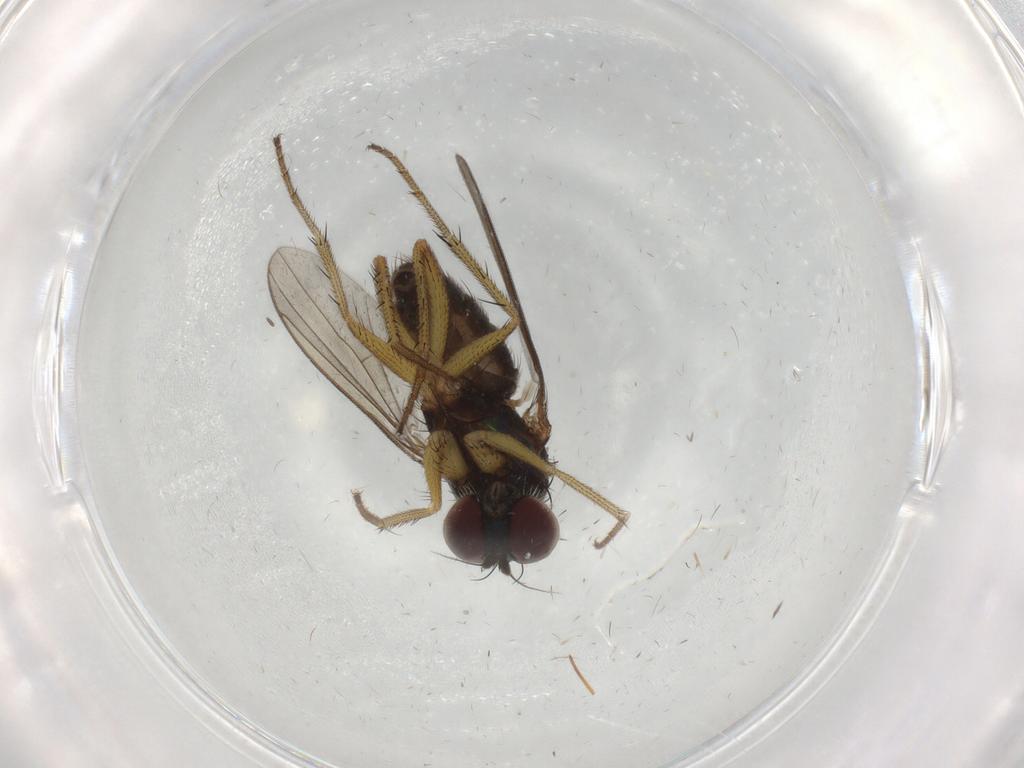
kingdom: Animalia
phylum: Arthropoda
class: Insecta
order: Diptera
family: Dolichopodidae
